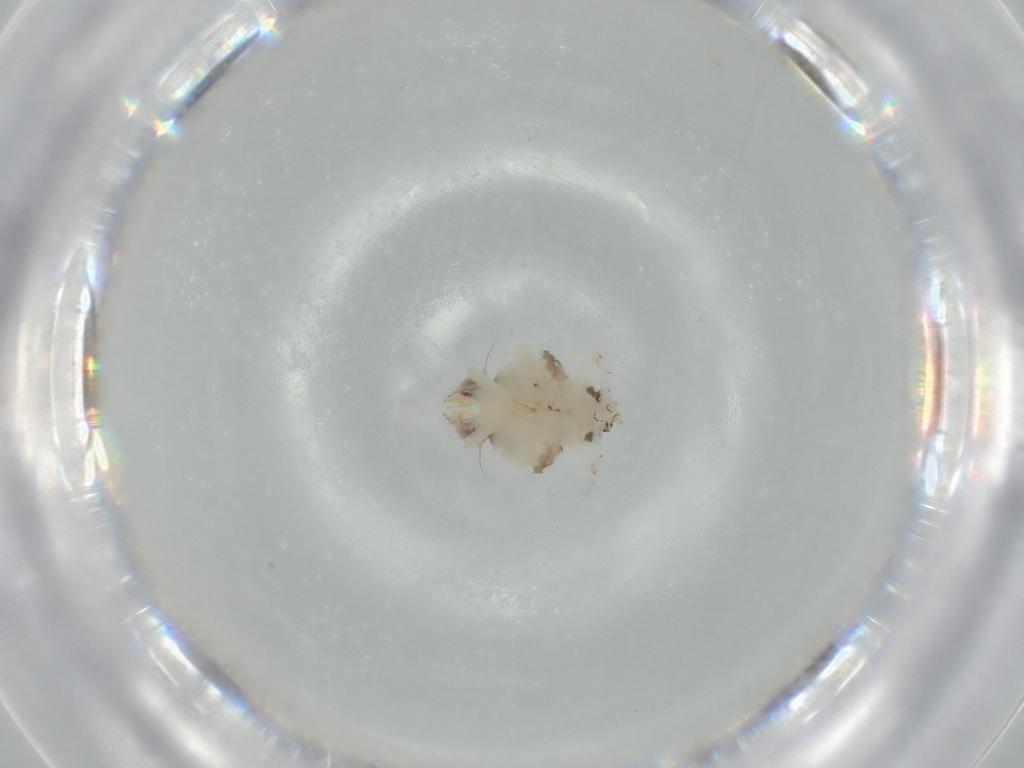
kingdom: Animalia
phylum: Arthropoda
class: Insecta
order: Hemiptera
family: Nogodinidae
